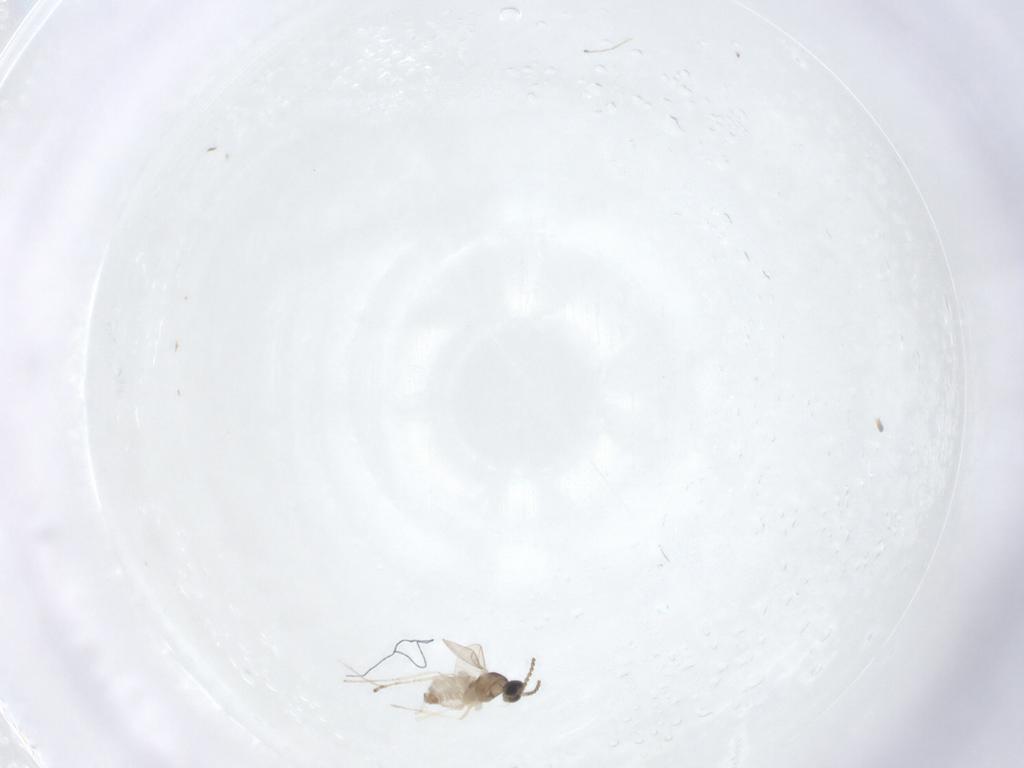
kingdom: Animalia
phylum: Arthropoda
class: Insecta
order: Diptera
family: Cecidomyiidae
